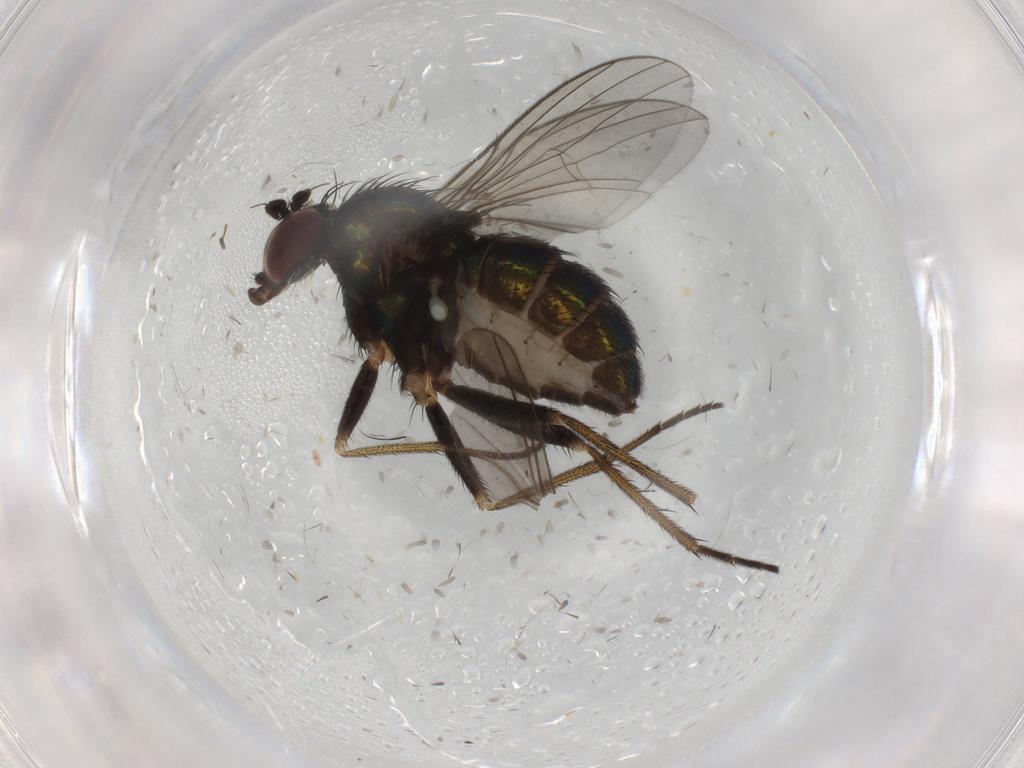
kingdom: Animalia
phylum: Arthropoda
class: Insecta
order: Diptera
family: Dolichopodidae
